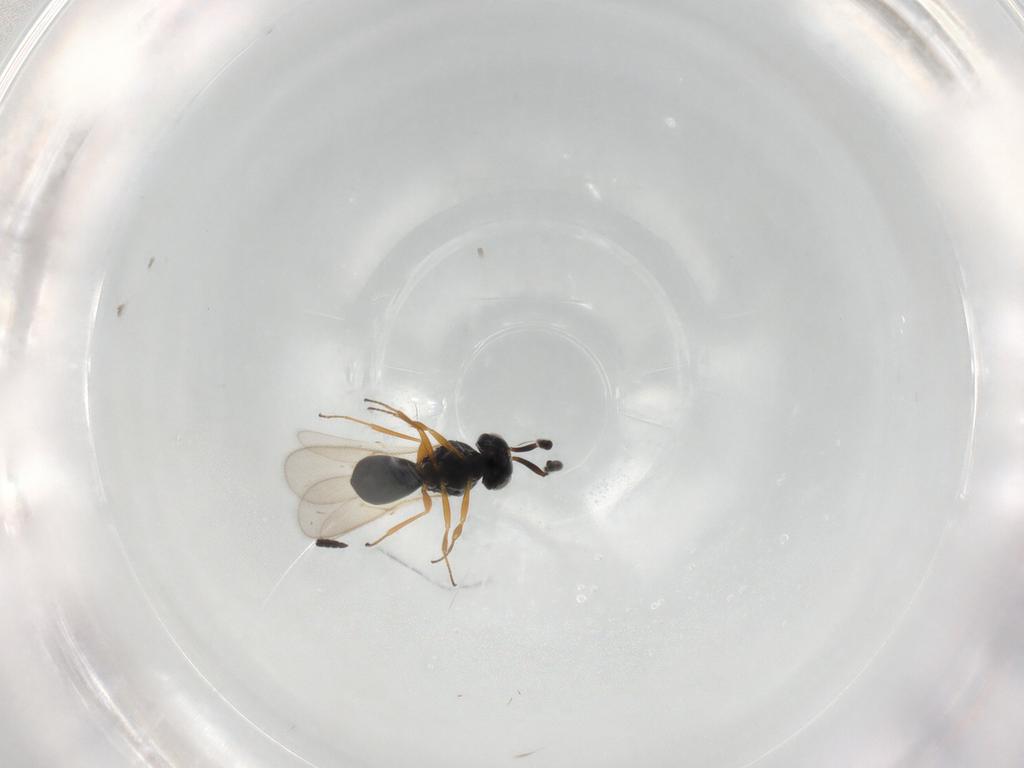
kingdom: Animalia
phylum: Arthropoda
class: Insecta
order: Hymenoptera
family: Scelionidae
